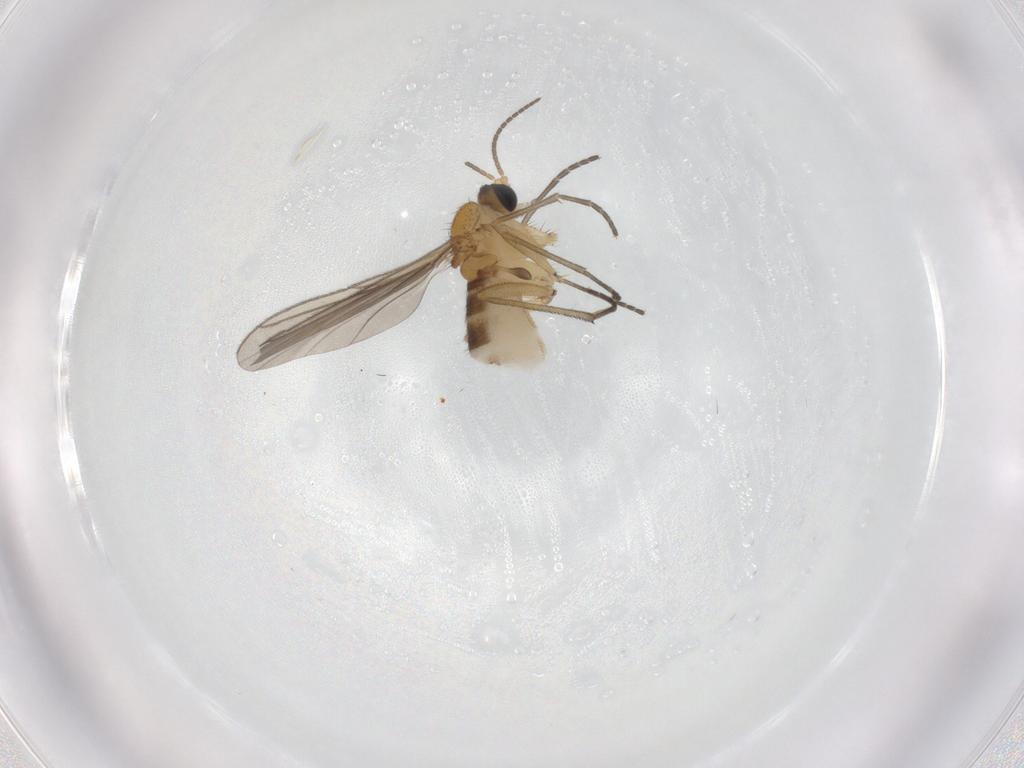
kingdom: Animalia
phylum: Arthropoda
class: Insecta
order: Diptera
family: Sciaridae
